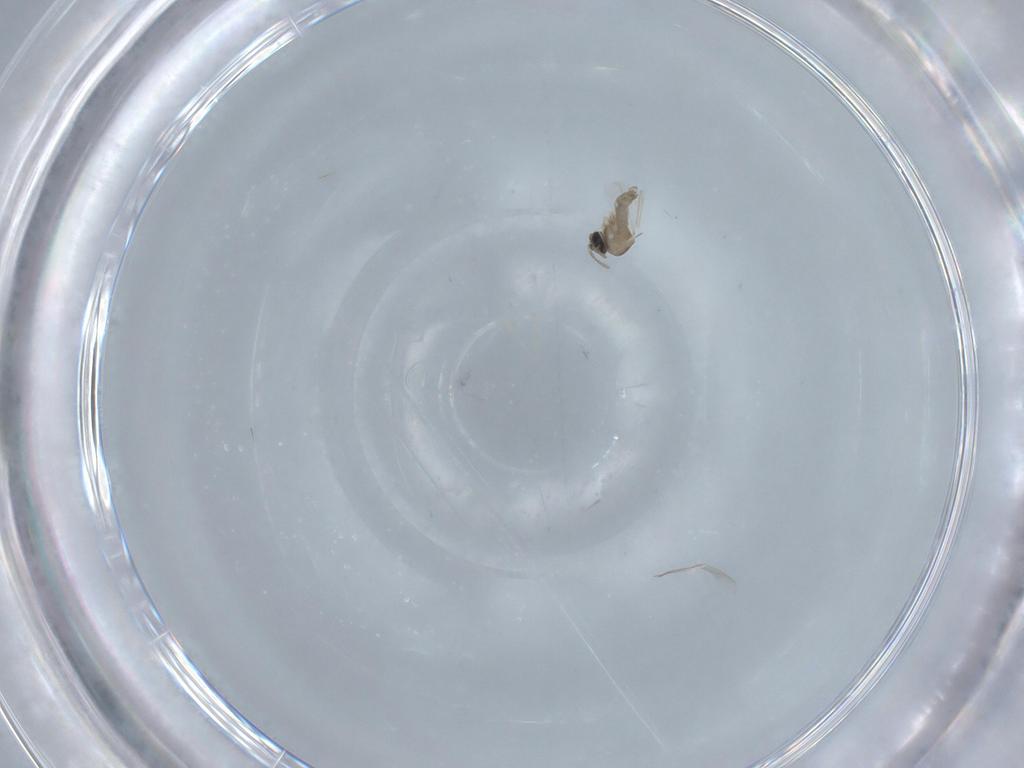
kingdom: Animalia
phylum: Arthropoda
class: Insecta
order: Diptera
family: Cecidomyiidae
